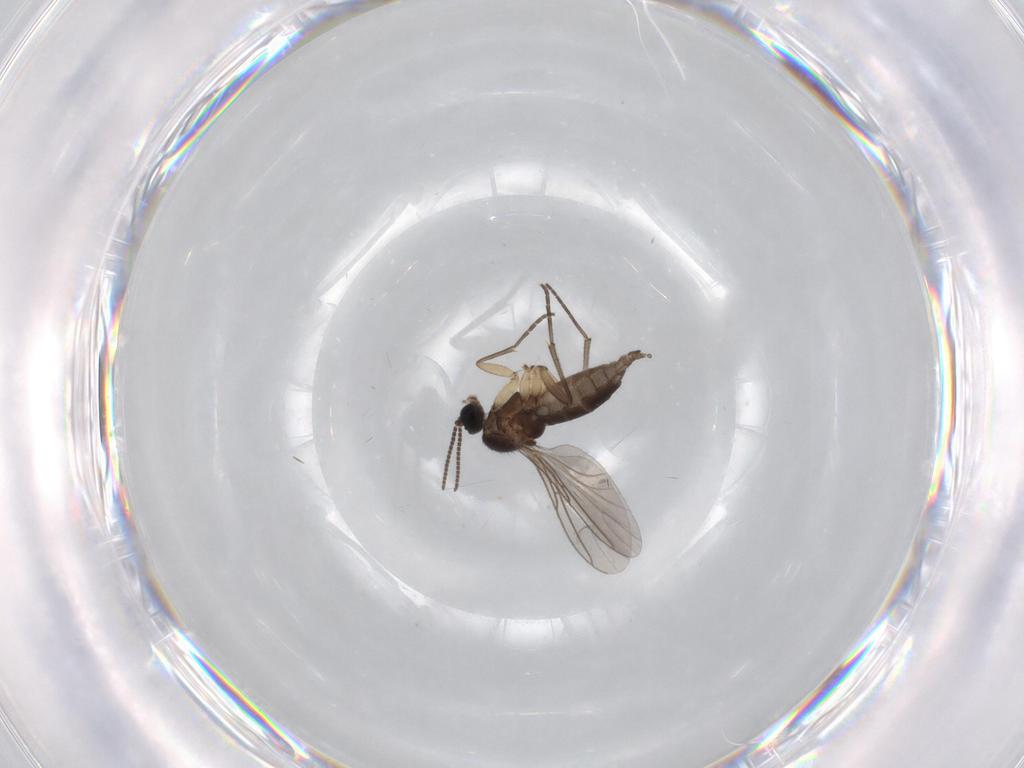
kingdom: Animalia
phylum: Arthropoda
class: Insecta
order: Diptera
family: Sciaridae
